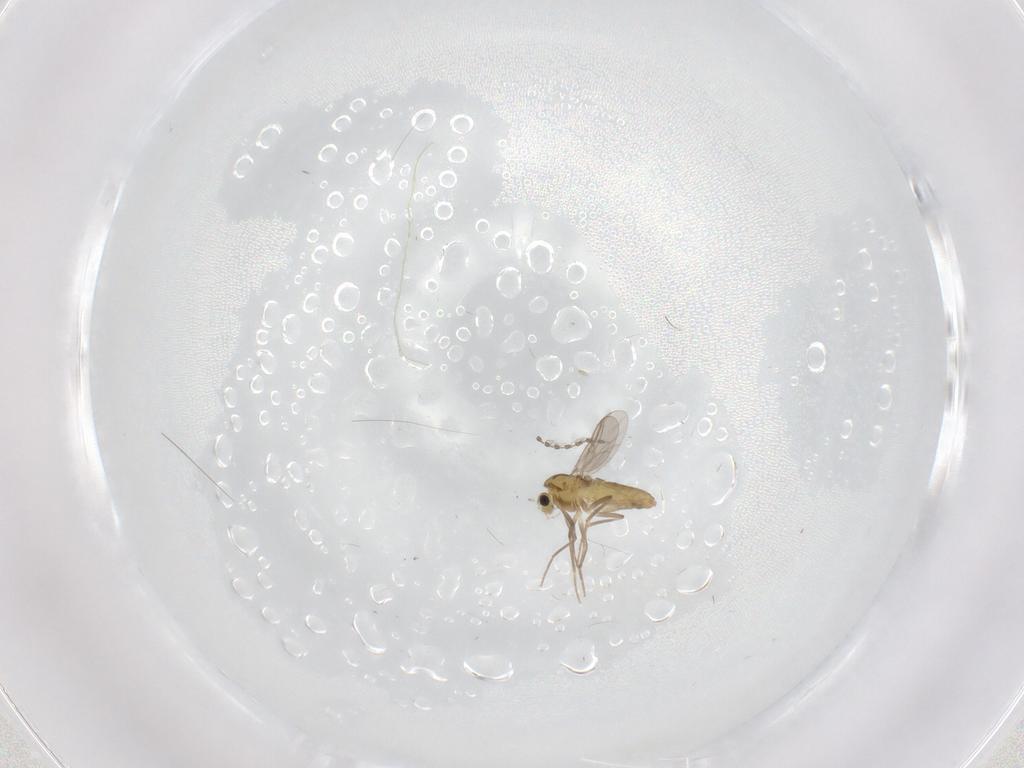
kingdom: Animalia
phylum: Arthropoda
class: Insecta
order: Diptera
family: Chironomidae
